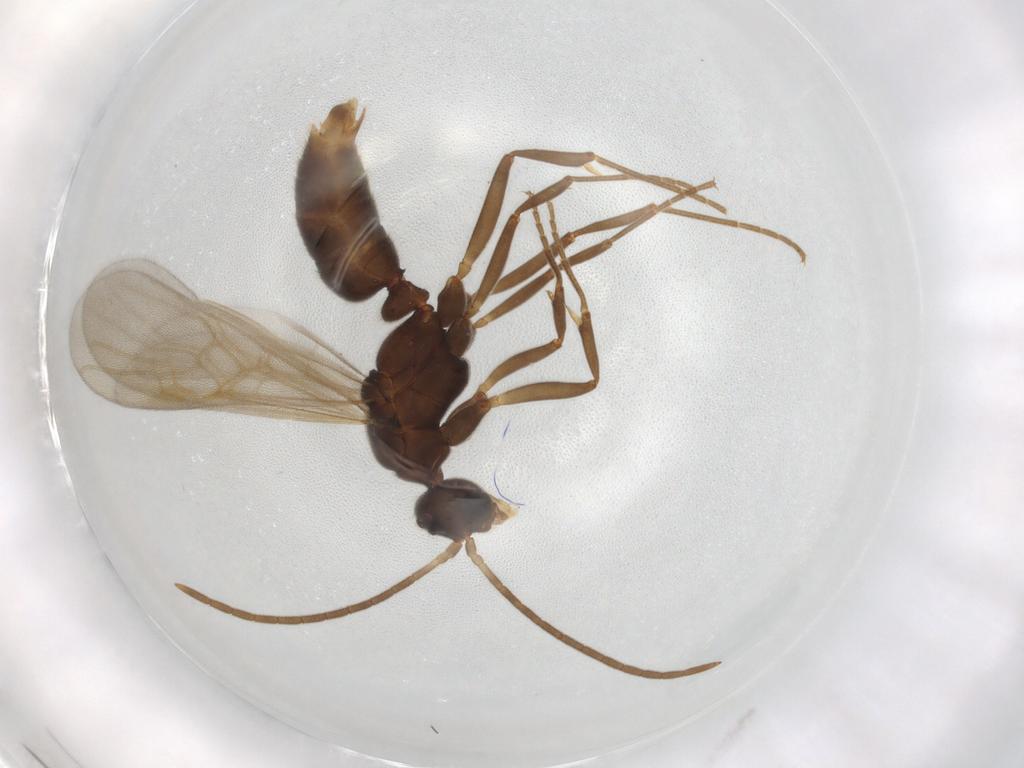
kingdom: Animalia
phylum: Arthropoda
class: Insecta
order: Hymenoptera
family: Formicidae
